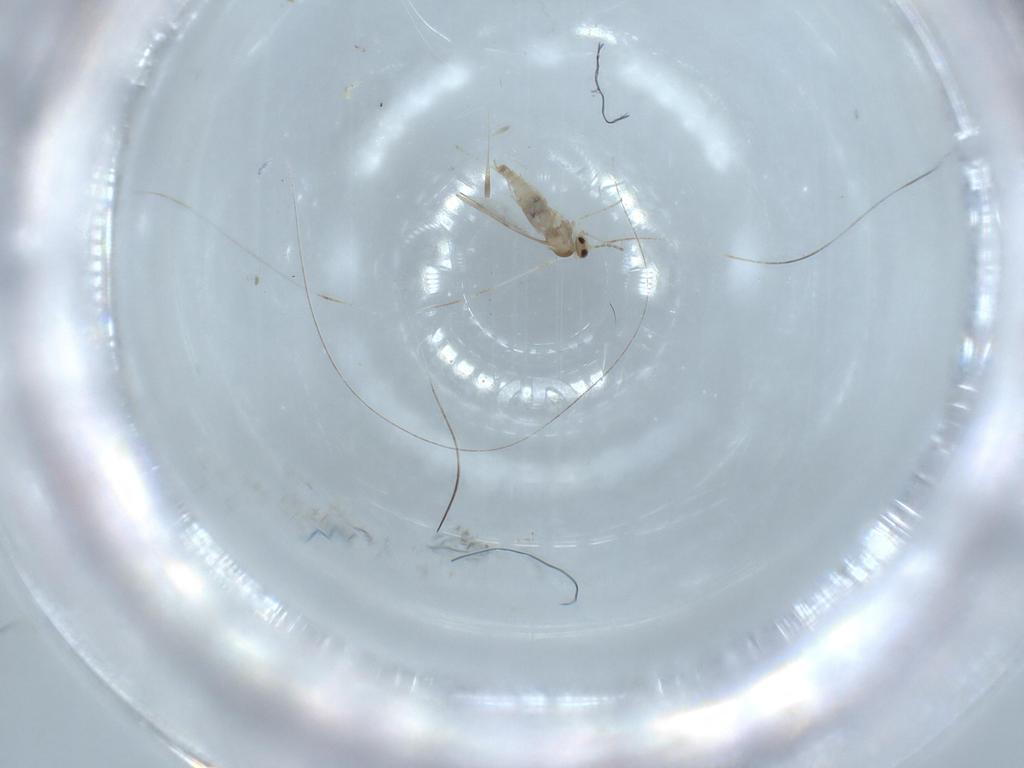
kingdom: Animalia
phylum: Arthropoda
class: Insecta
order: Diptera
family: Cecidomyiidae
